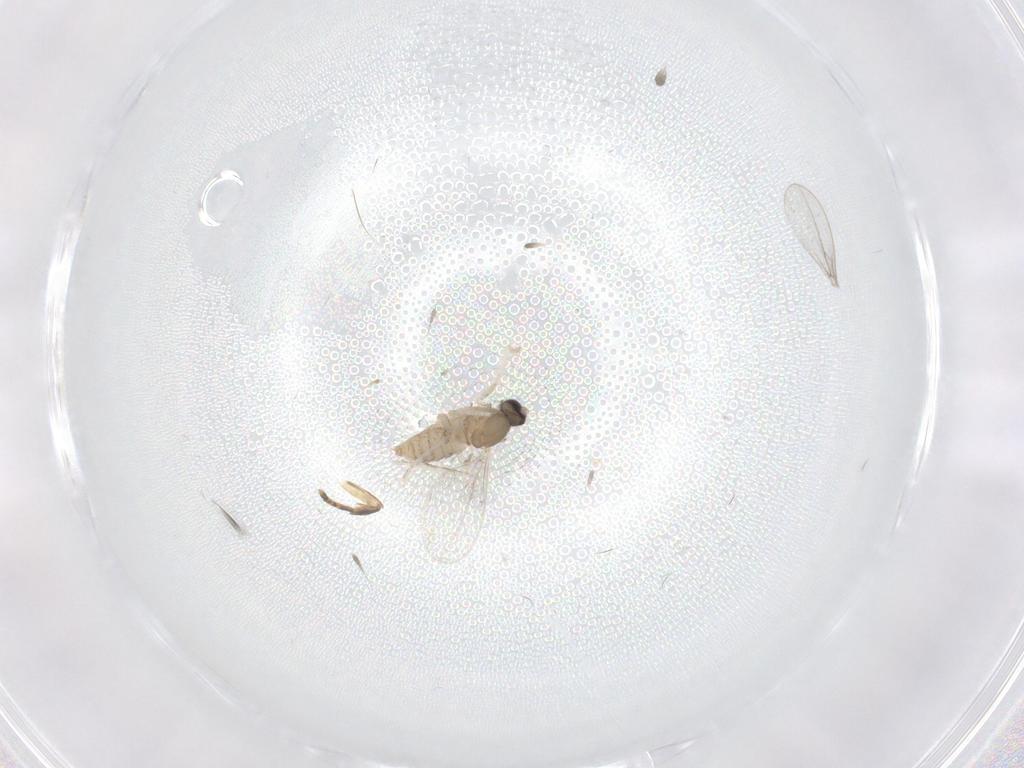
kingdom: Animalia
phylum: Arthropoda
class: Insecta
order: Diptera
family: Cecidomyiidae
